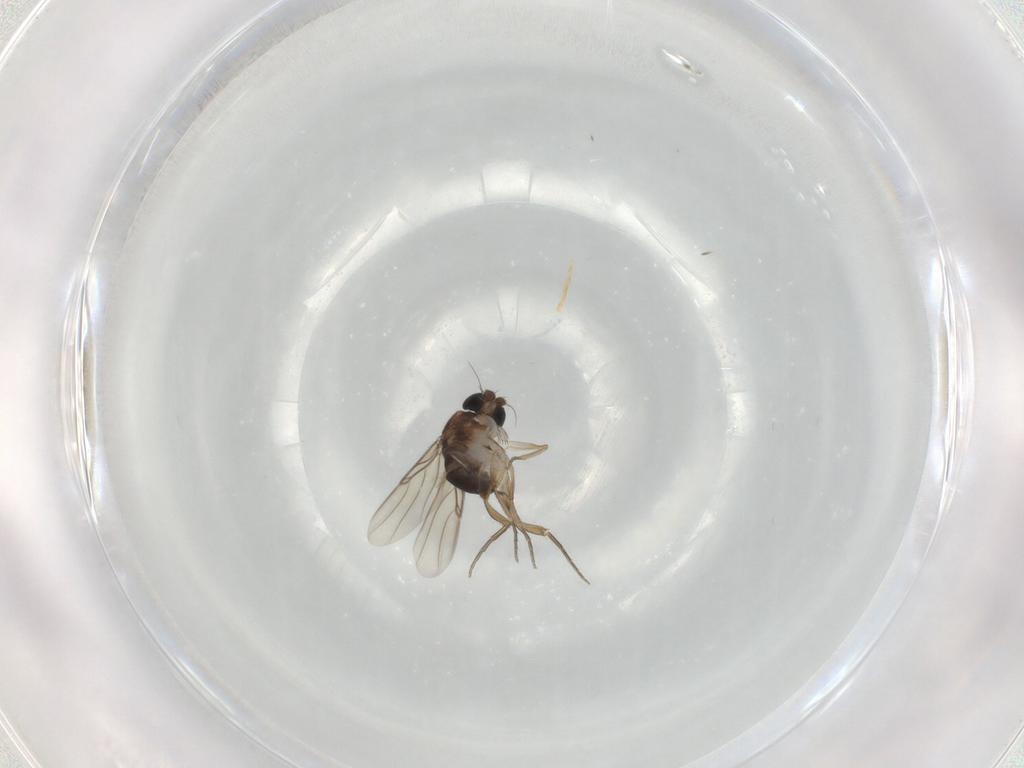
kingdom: Animalia
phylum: Arthropoda
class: Insecta
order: Diptera
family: Phoridae
